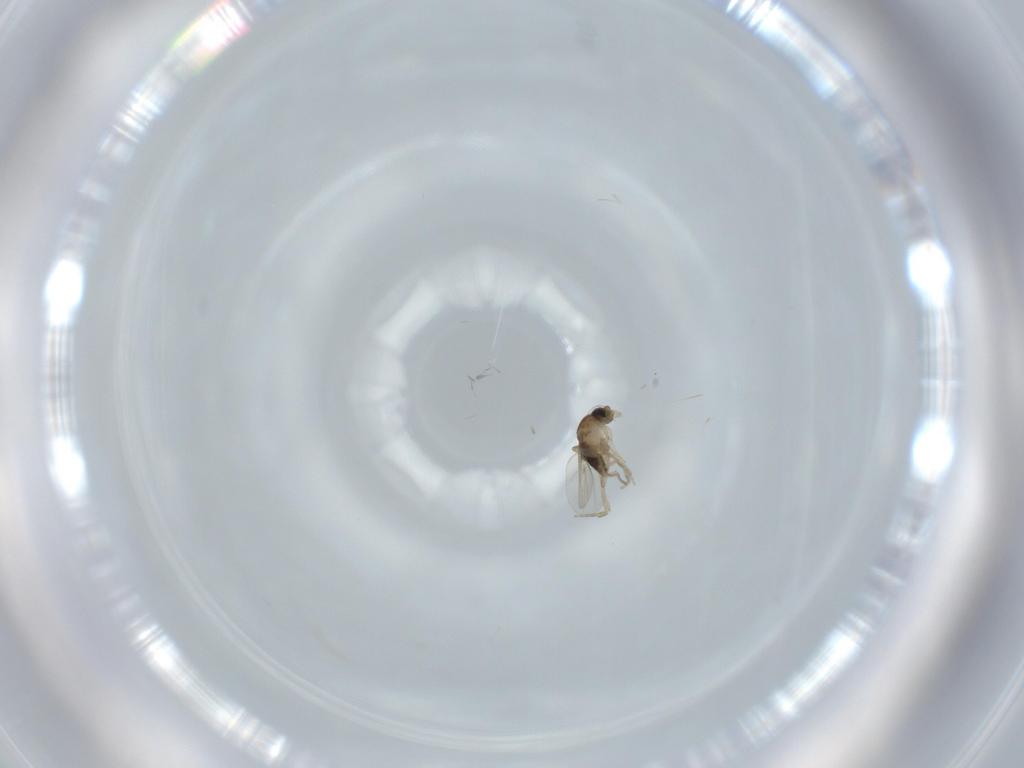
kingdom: Animalia
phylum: Arthropoda
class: Insecta
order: Diptera
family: Phoridae
